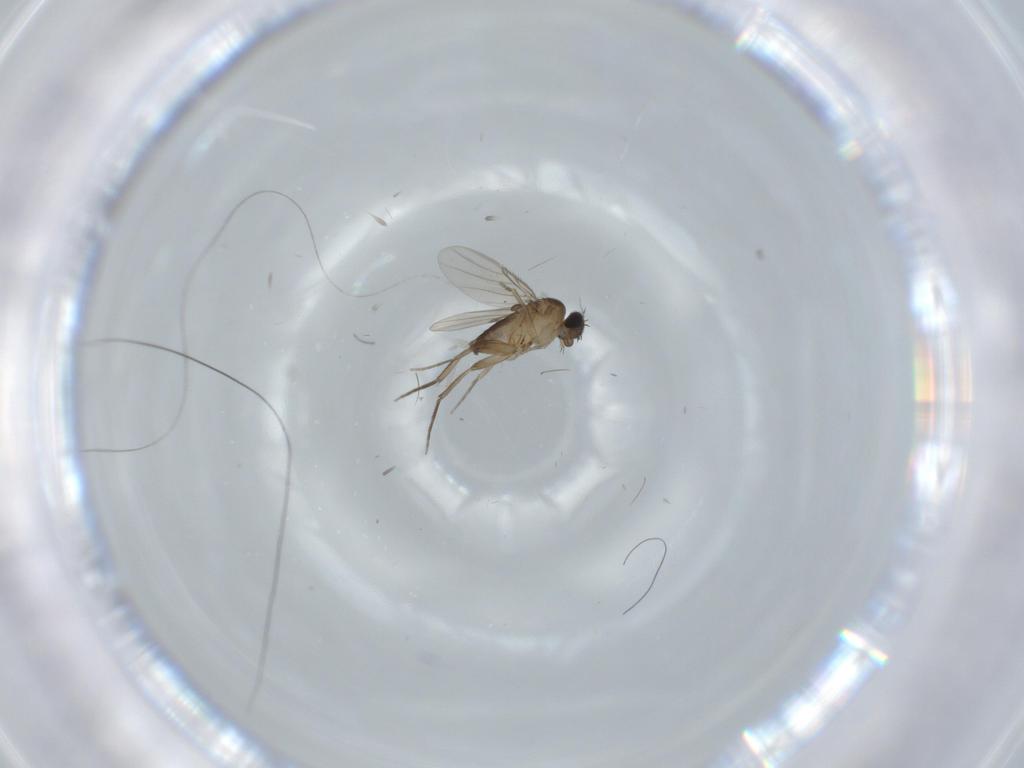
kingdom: Animalia
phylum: Arthropoda
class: Insecta
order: Diptera
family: Phoridae
